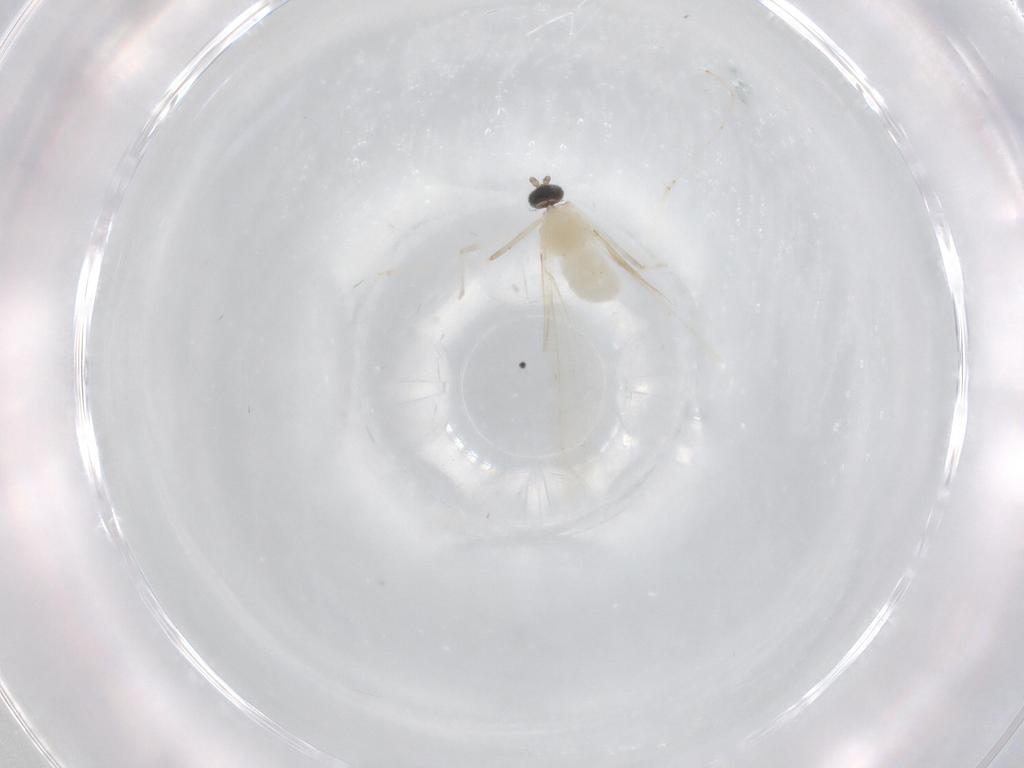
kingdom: Animalia
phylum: Arthropoda
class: Insecta
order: Diptera
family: Cecidomyiidae
